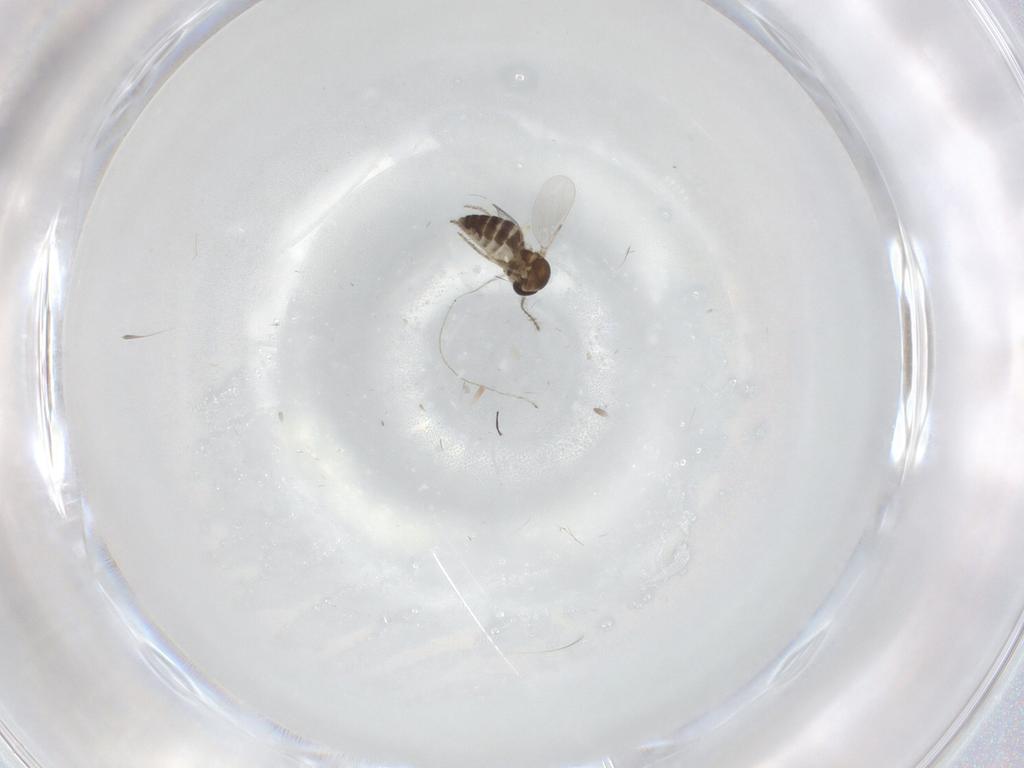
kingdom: Animalia
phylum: Arthropoda
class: Insecta
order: Diptera
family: Ceratopogonidae
